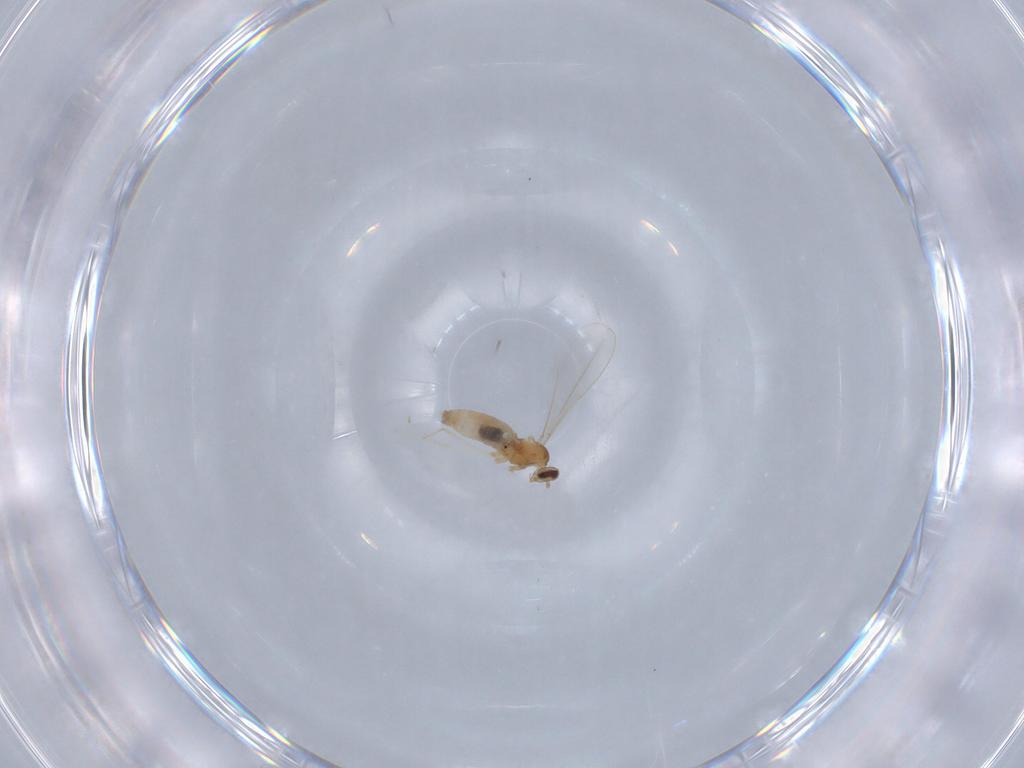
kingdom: Animalia
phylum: Arthropoda
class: Insecta
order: Diptera
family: Cecidomyiidae
